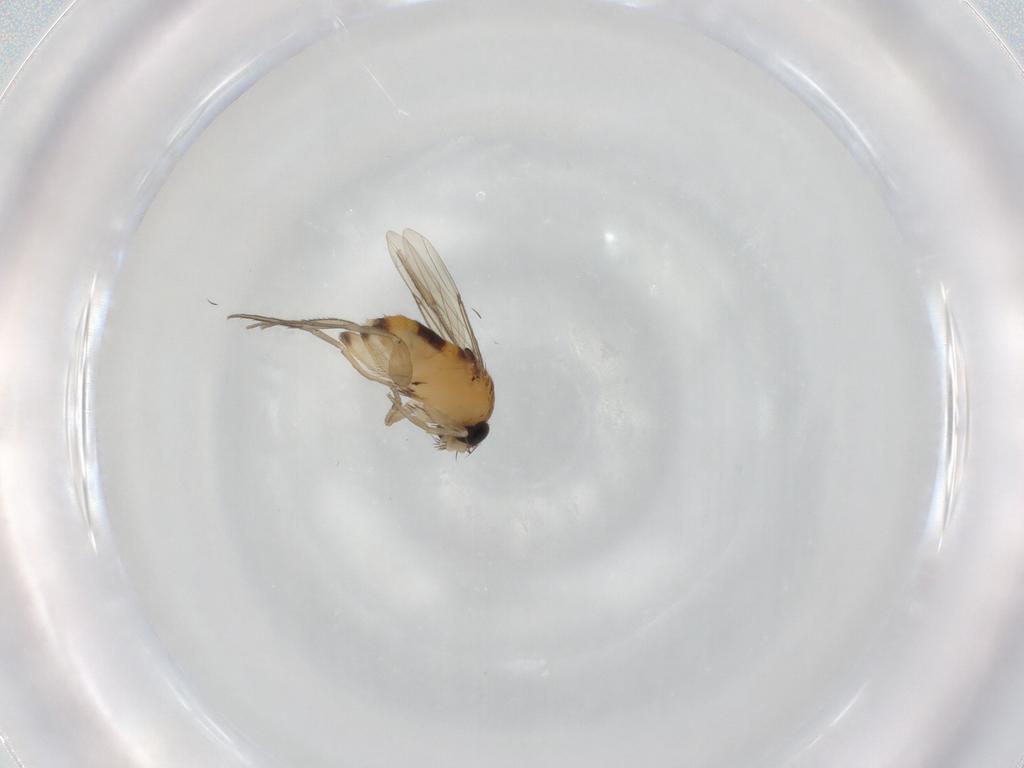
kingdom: Animalia
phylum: Arthropoda
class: Insecta
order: Diptera
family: Phoridae
